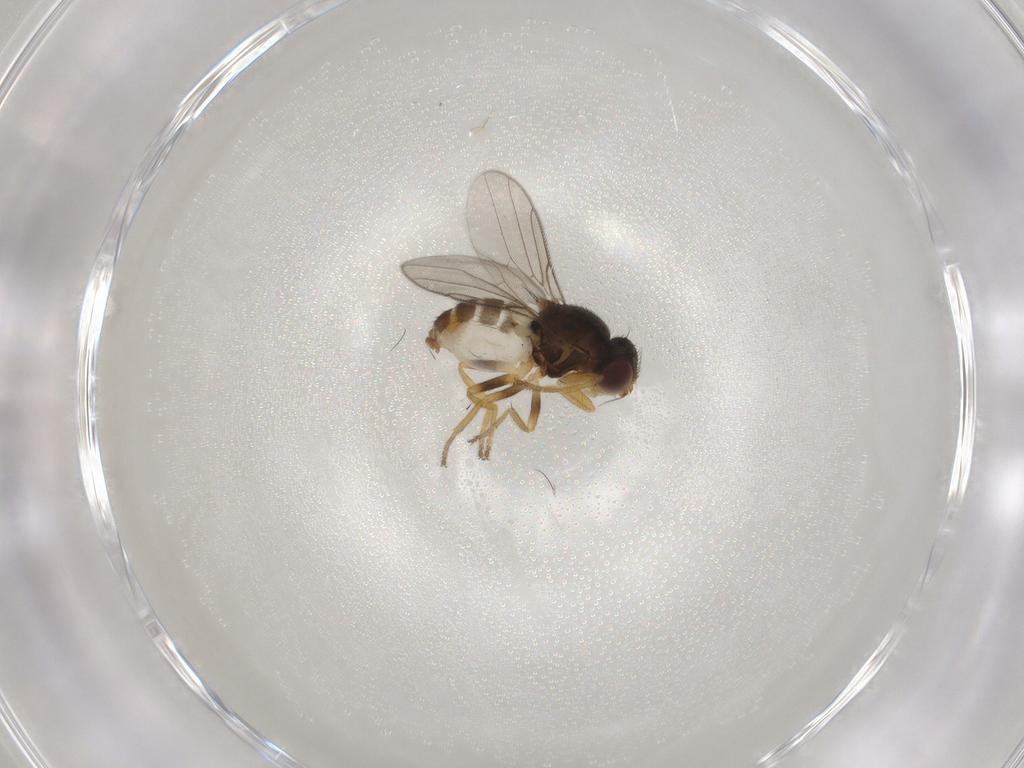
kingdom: Animalia
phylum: Arthropoda
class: Insecta
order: Diptera
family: Chloropidae
